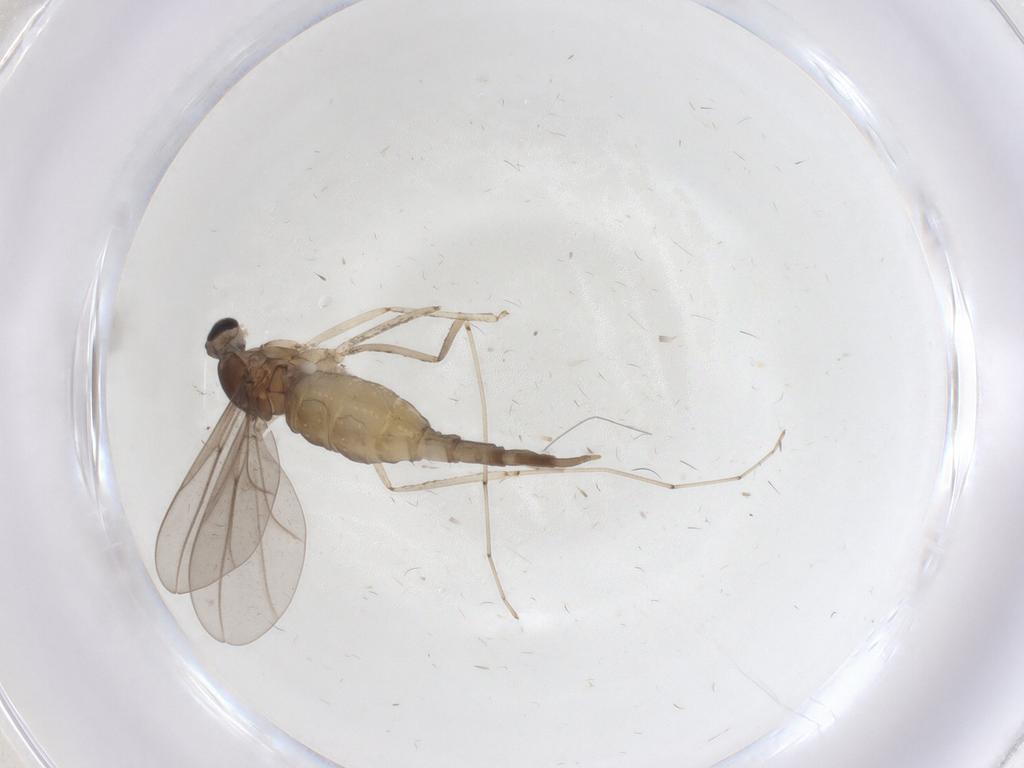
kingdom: Animalia
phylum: Arthropoda
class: Insecta
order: Diptera
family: Cecidomyiidae
